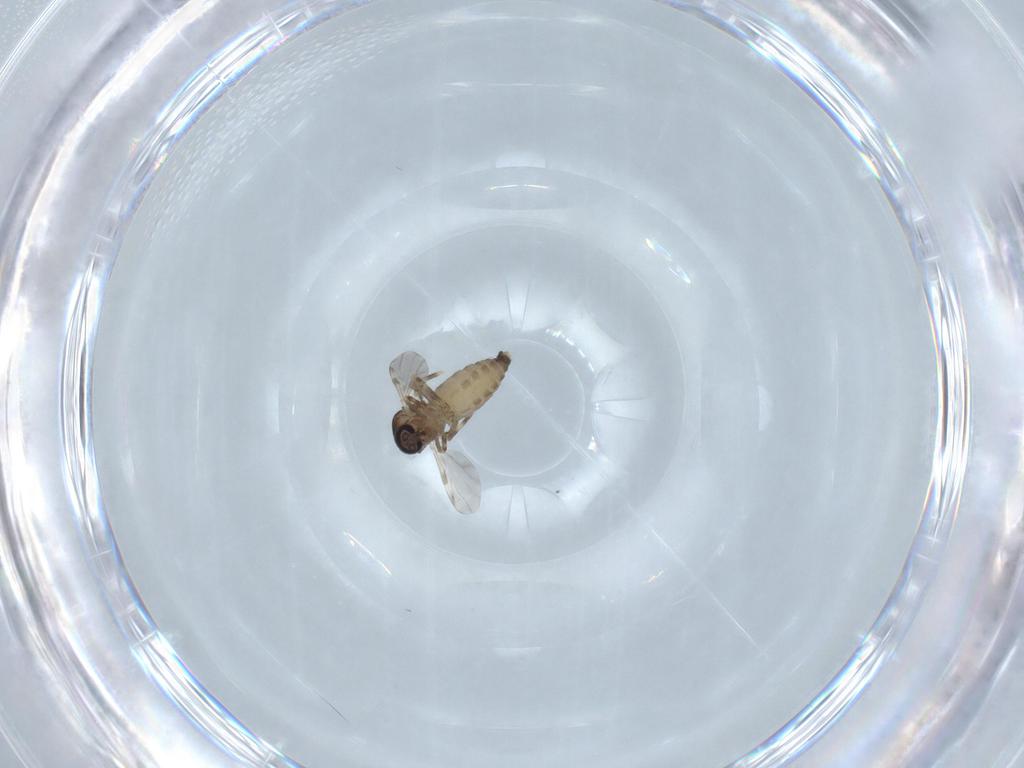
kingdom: Animalia
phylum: Arthropoda
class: Insecta
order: Diptera
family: Ceratopogonidae
